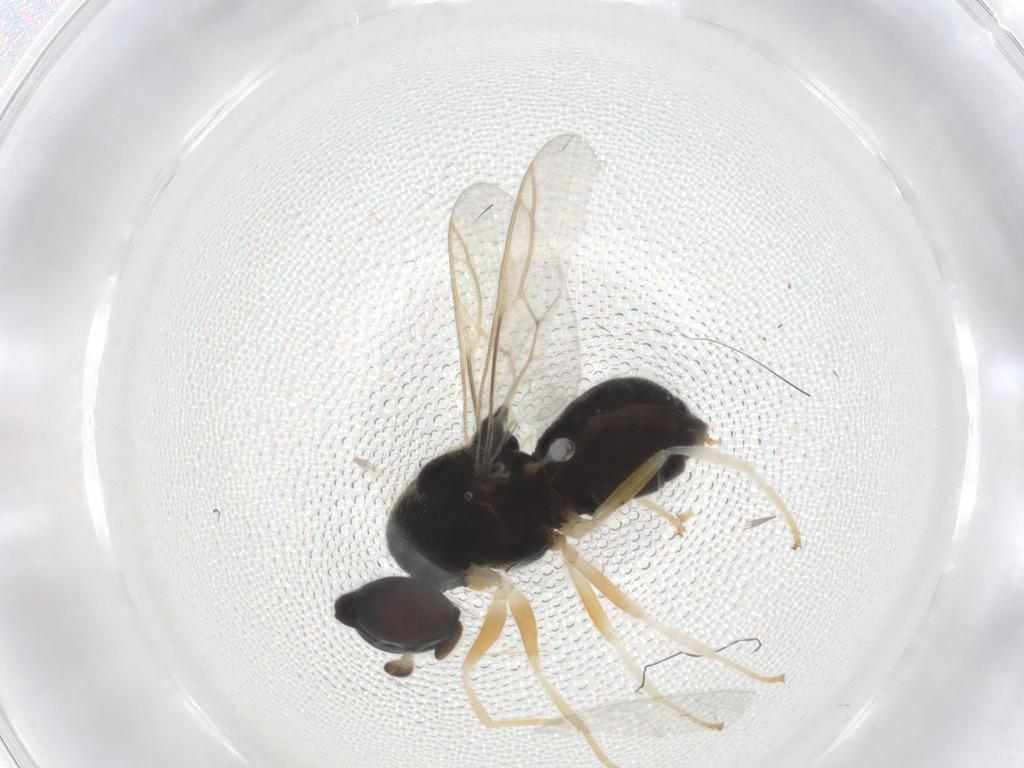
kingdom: Animalia
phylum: Arthropoda
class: Insecta
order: Diptera
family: Stratiomyidae
